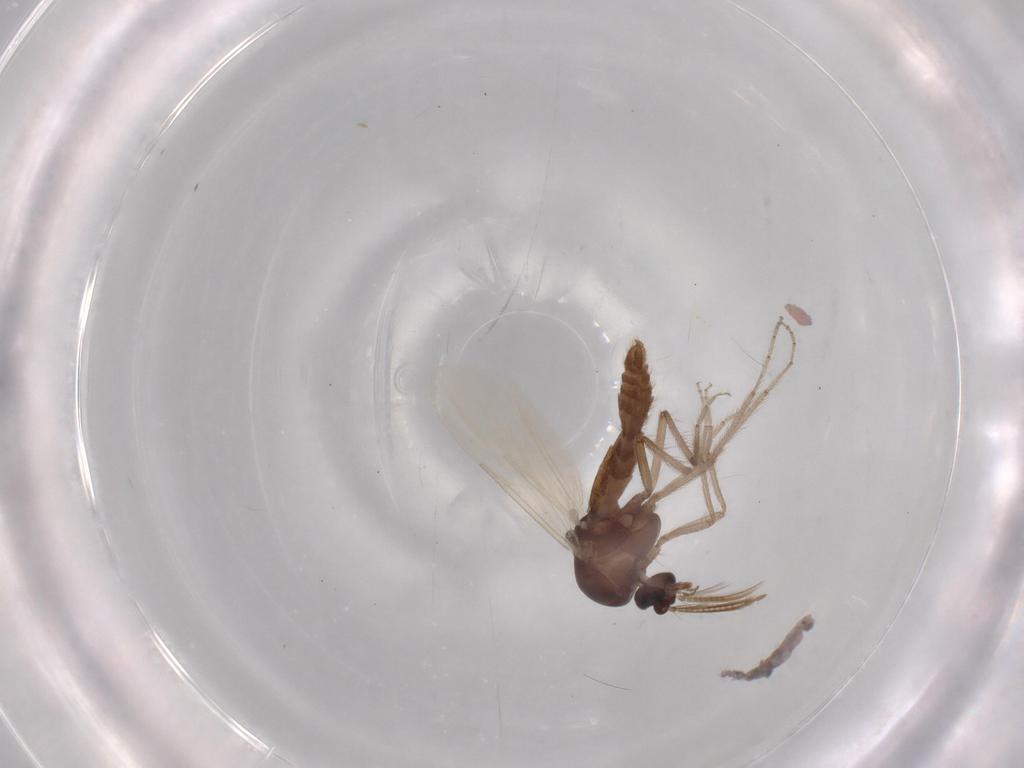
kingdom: Animalia
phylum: Arthropoda
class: Insecta
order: Diptera
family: Ceratopogonidae
